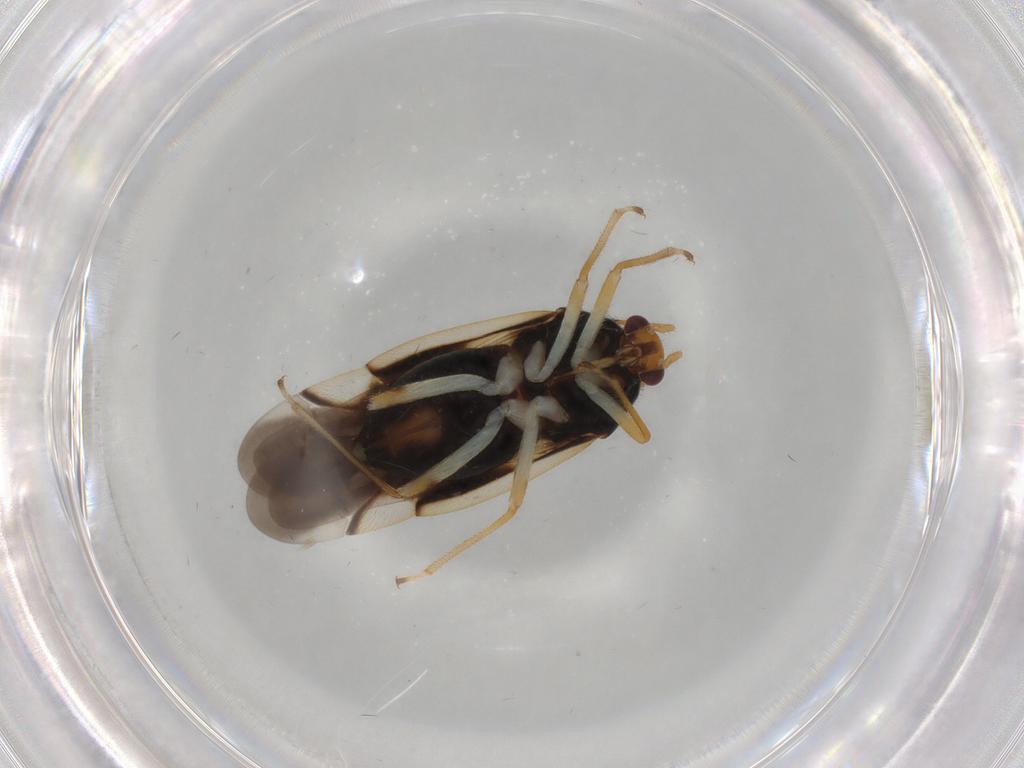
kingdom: Animalia
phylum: Arthropoda
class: Insecta
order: Hemiptera
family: Miridae
